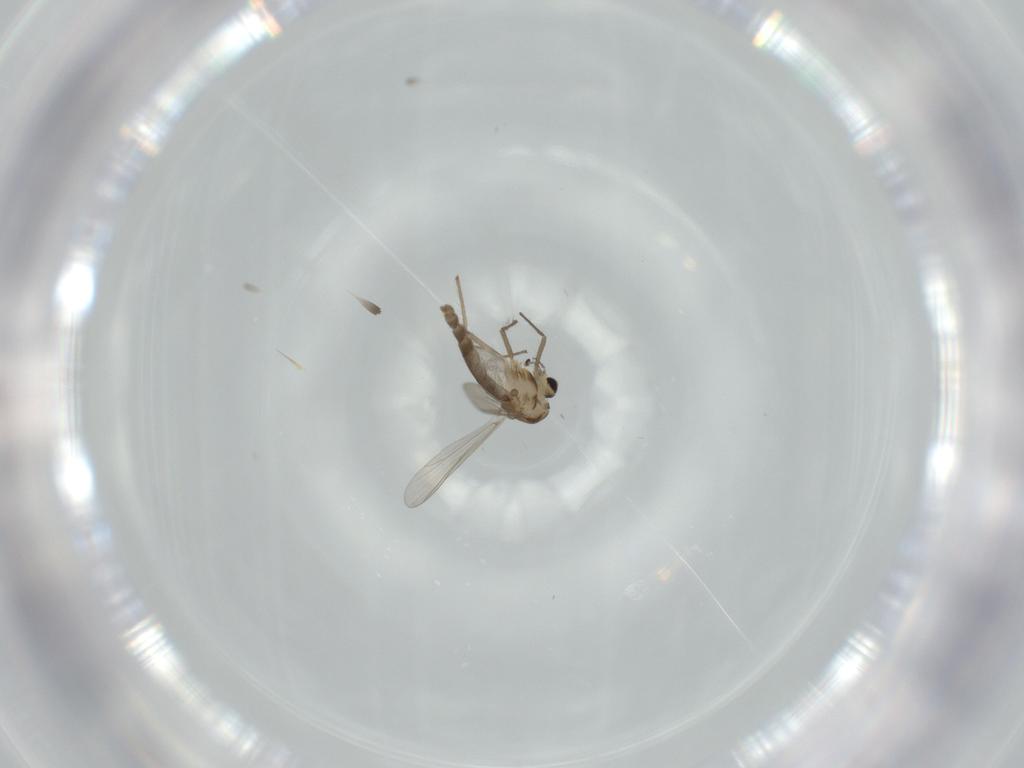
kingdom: Animalia
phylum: Arthropoda
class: Insecta
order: Diptera
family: Chironomidae
